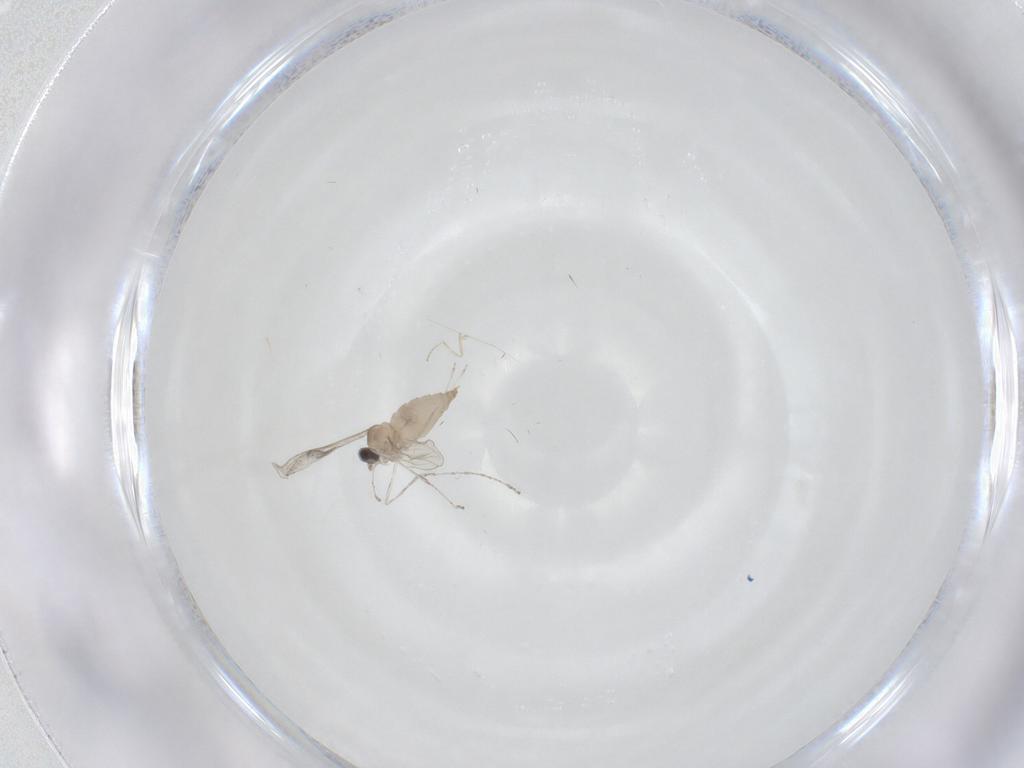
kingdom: Animalia
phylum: Arthropoda
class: Insecta
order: Diptera
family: Cecidomyiidae
